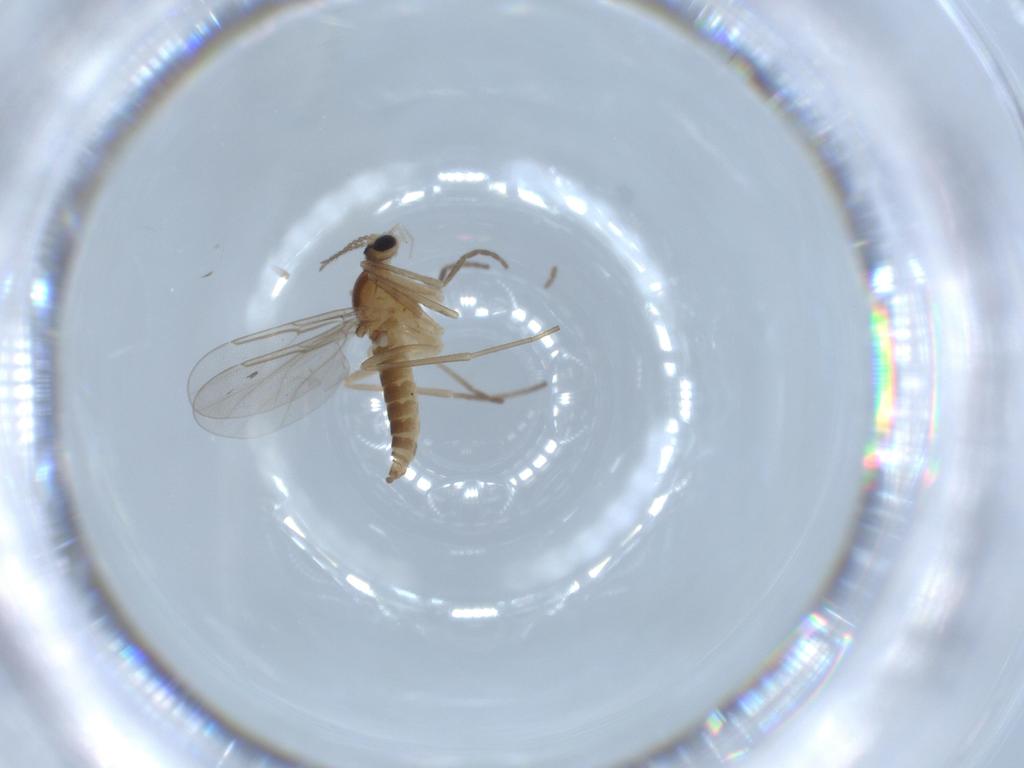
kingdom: Animalia
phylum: Arthropoda
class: Insecta
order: Diptera
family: Cecidomyiidae
